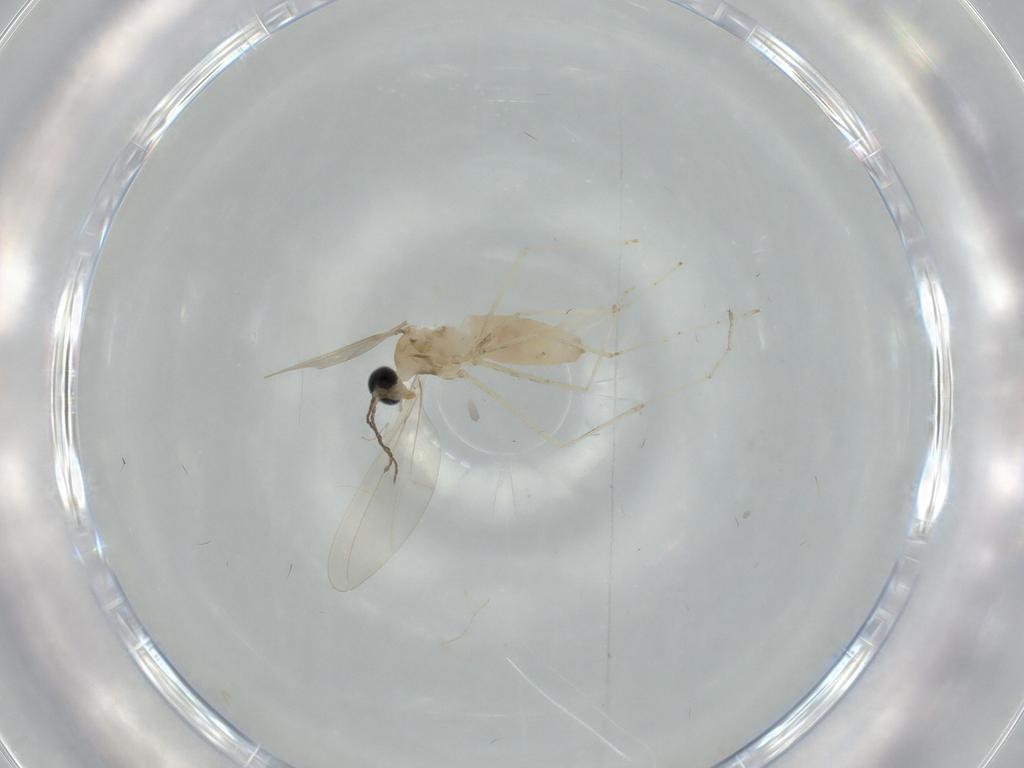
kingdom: Animalia
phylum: Arthropoda
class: Insecta
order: Diptera
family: Cecidomyiidae
